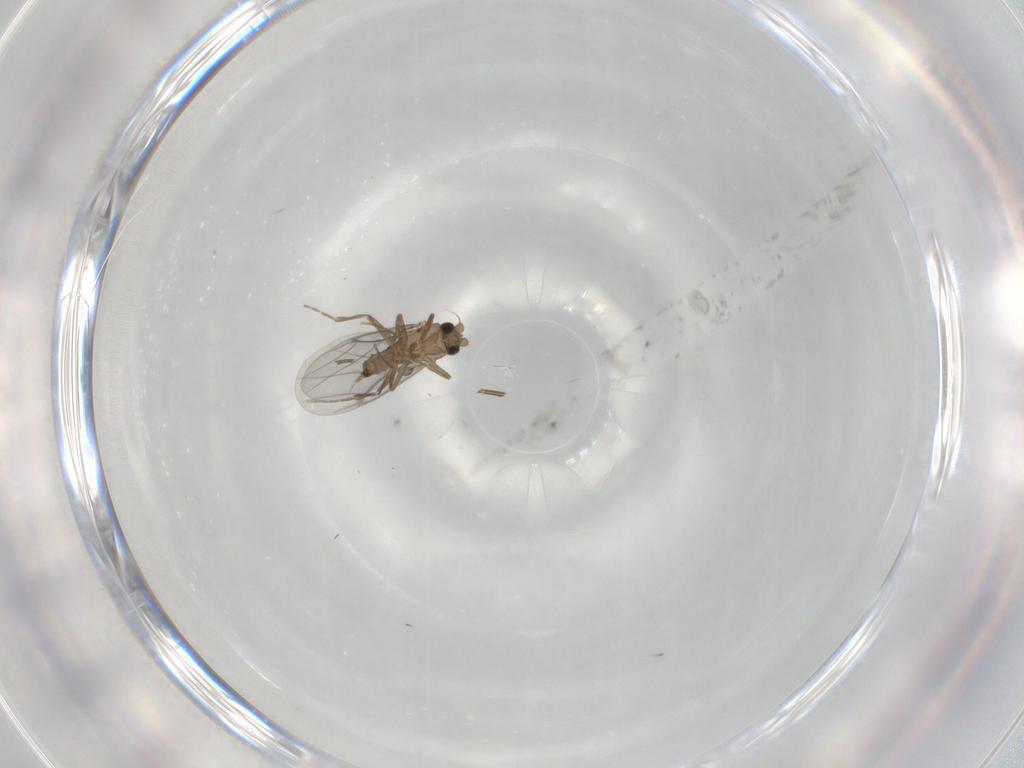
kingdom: Animalia
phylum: Arthropoda
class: Insecta
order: Diptera
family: Phoridae
